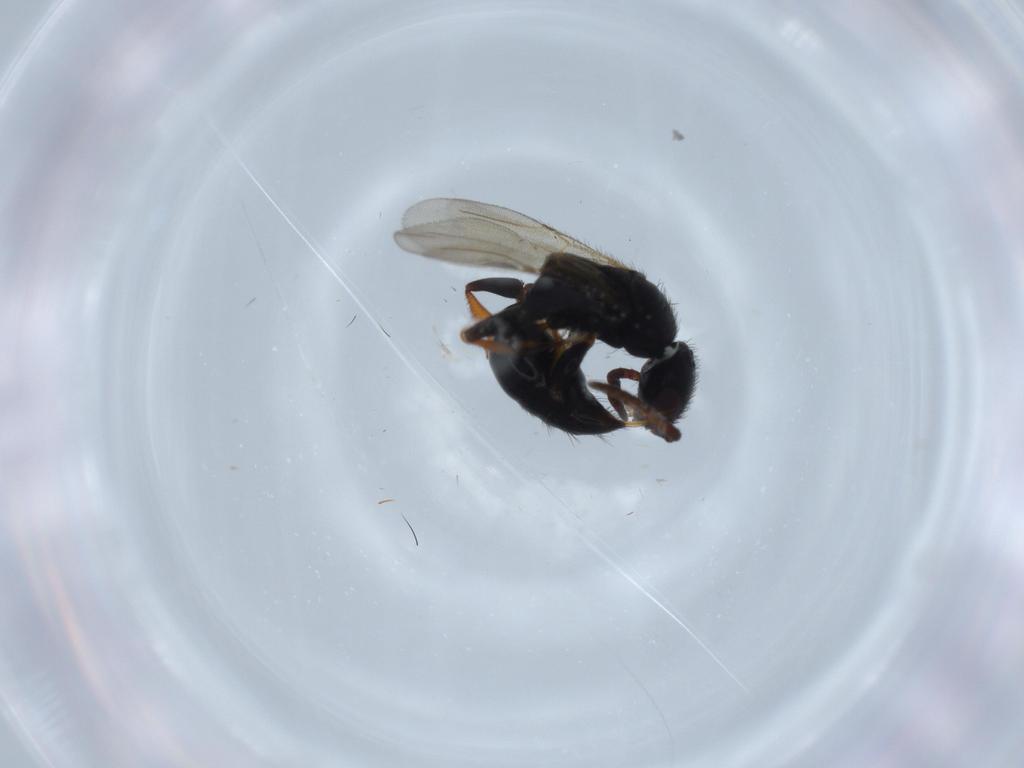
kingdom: Animalia
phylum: Arthropoda
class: Insecta
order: Hymenoptera
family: Bethylidae
